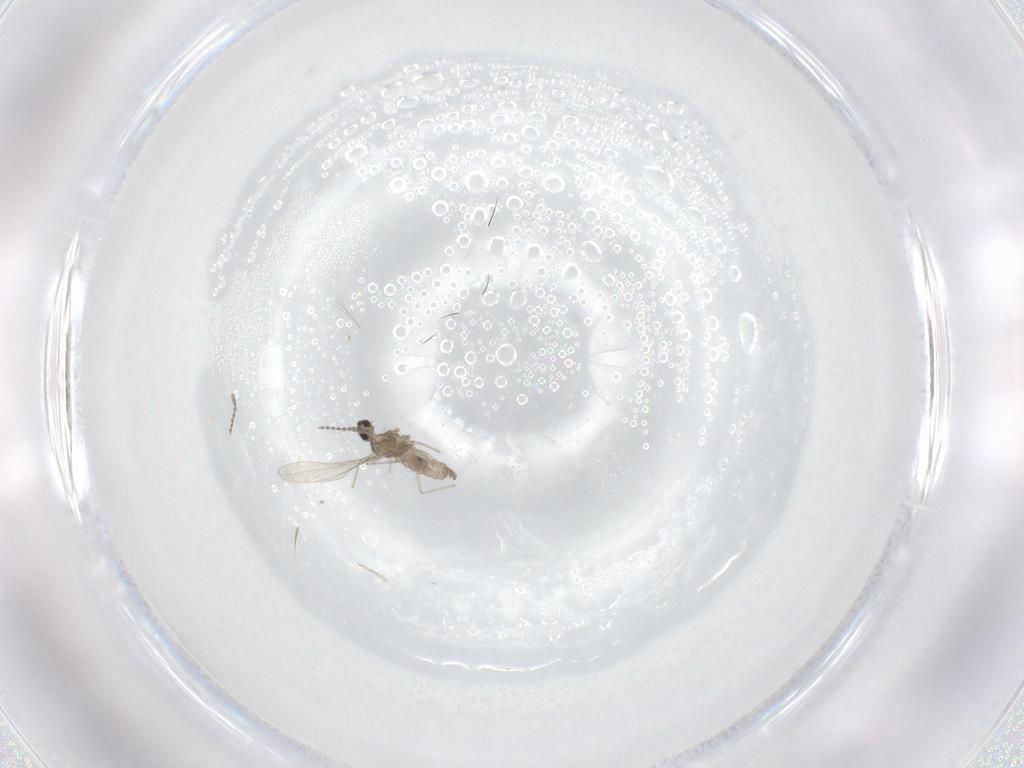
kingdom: Animalia
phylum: Arthropoda
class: Insecta
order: Diptera
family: Cecidomyiidae
